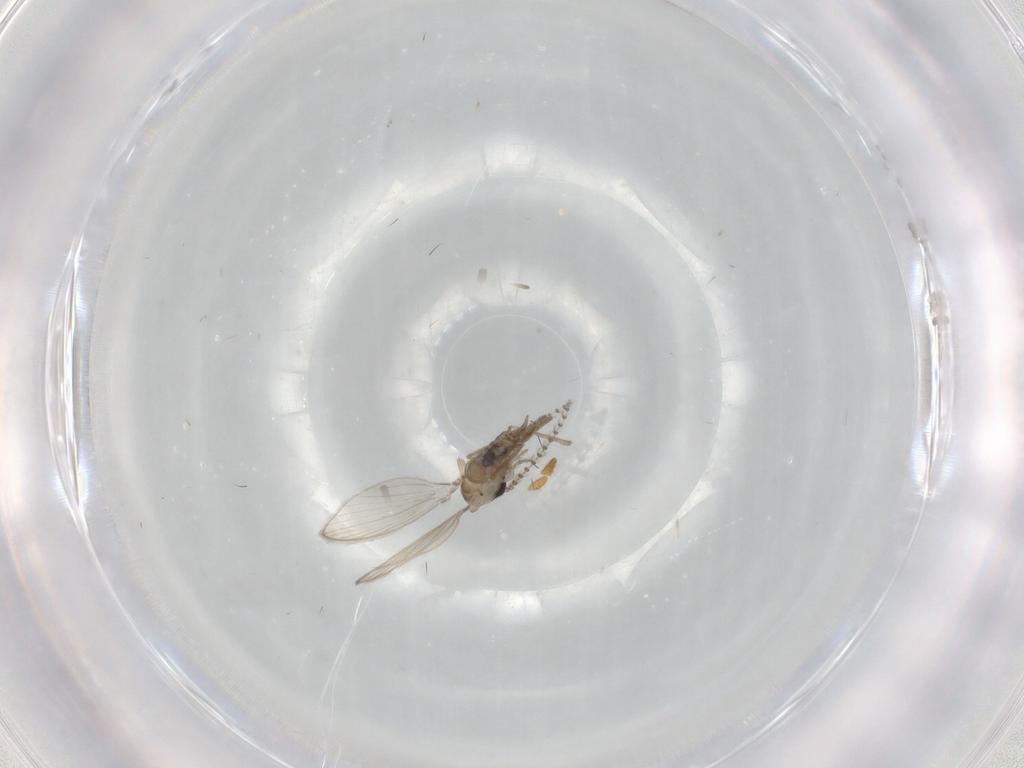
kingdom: Animalia
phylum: Arthropoda
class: Insecta
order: Diptera
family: Psychodidae
